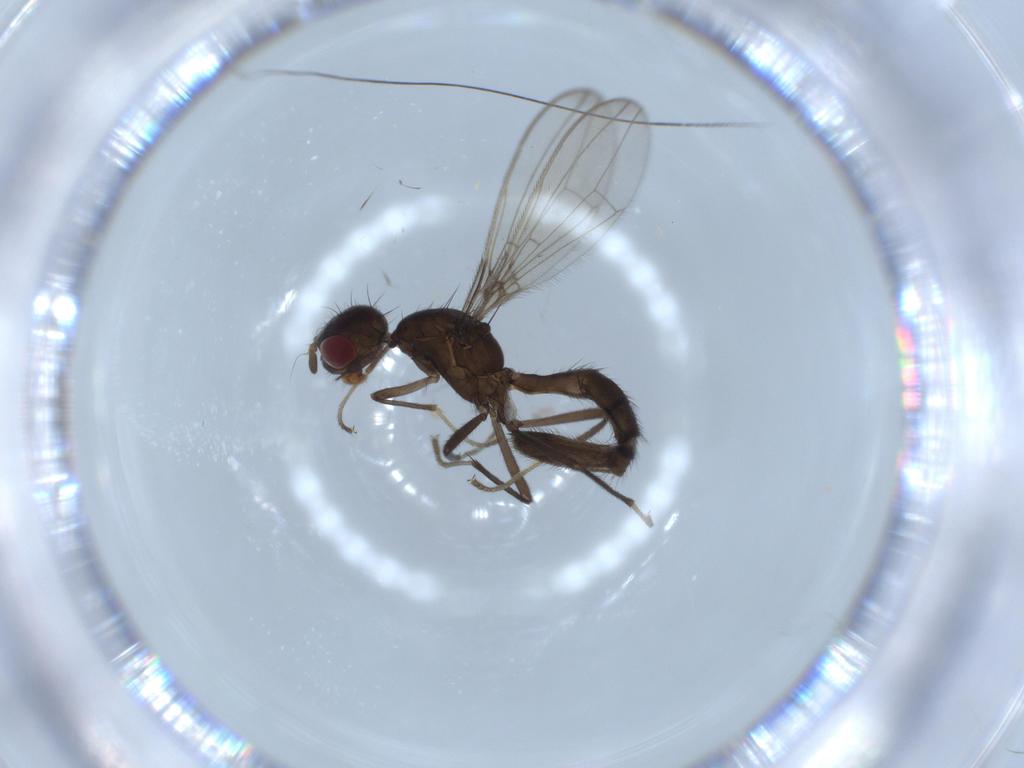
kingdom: Animalia
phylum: Arthropoda
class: Insecta
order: Diptera
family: Richardiidae
